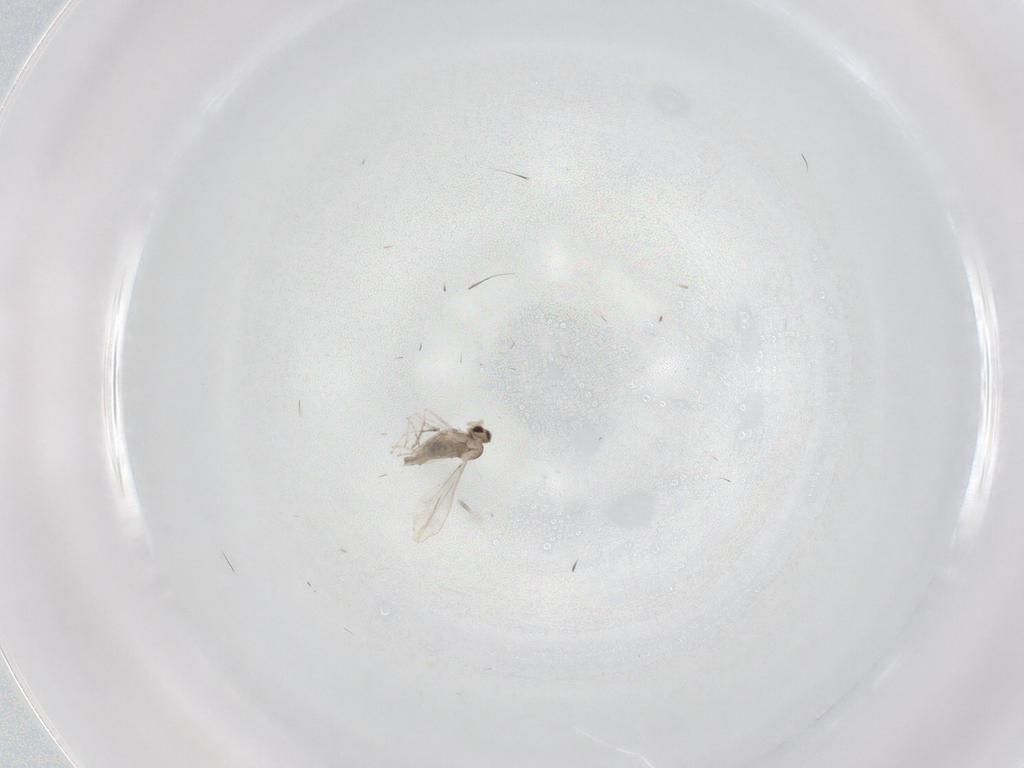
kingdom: Animalia
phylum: Arthropoda
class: Insecta
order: Diptera
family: Cecidomyiidae
